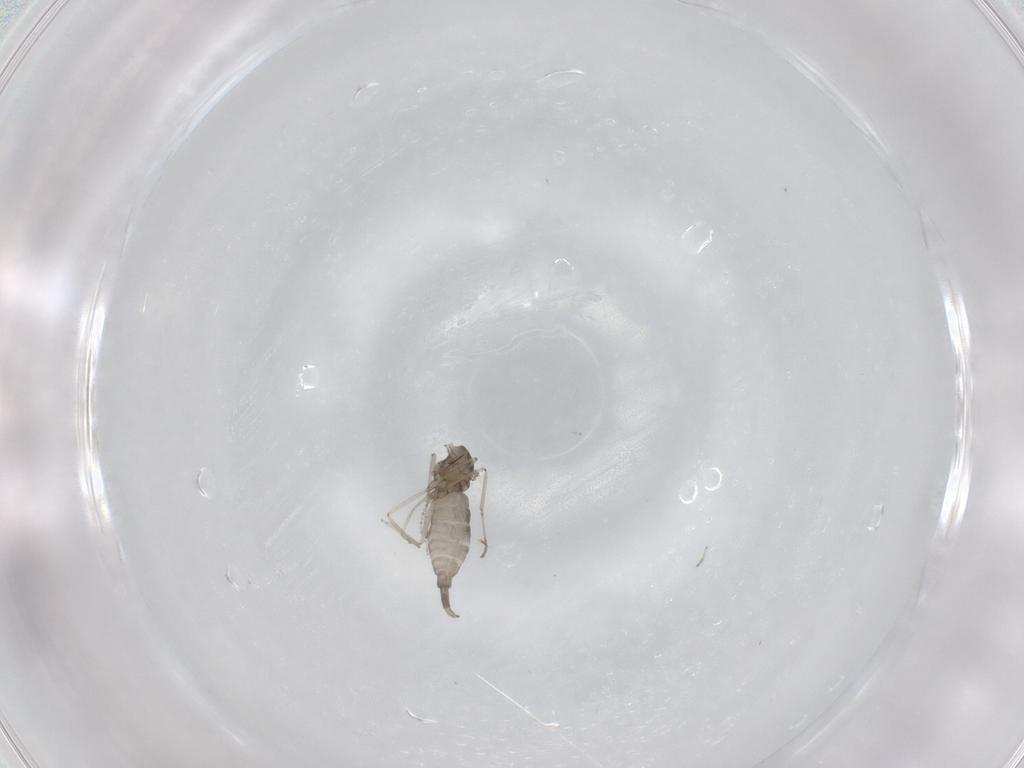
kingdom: Animalia
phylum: Arthropoda
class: Insecta
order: Diptera
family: Cecidomyiidae
